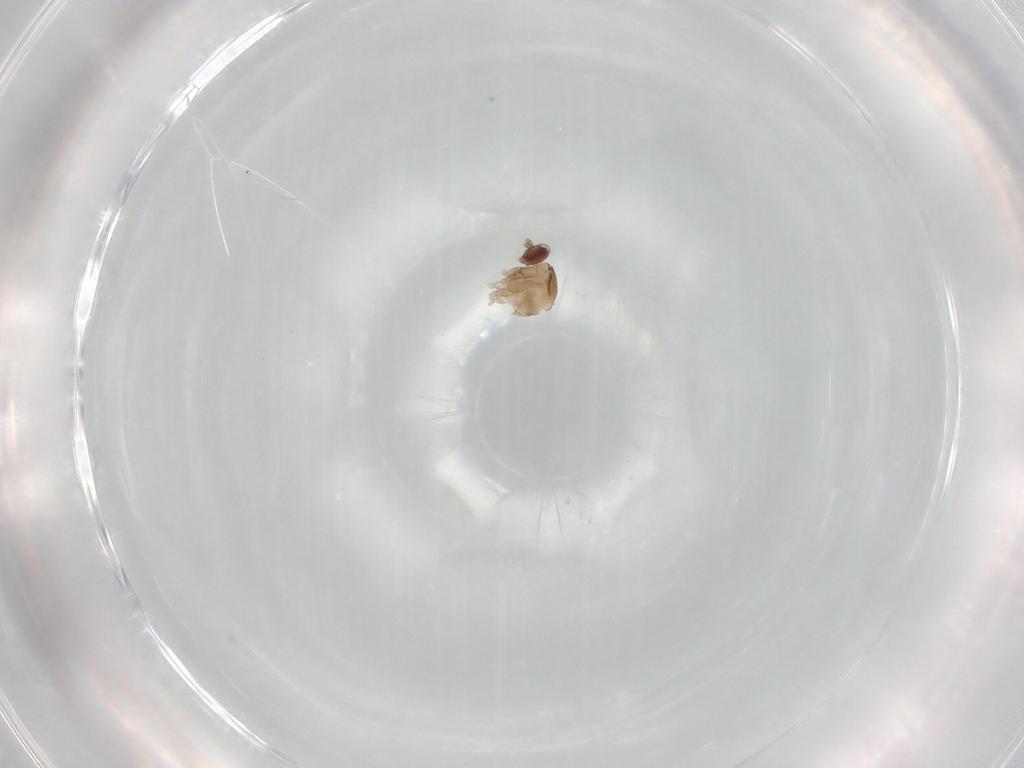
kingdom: Animalia
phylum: Arthropoda
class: Insecta
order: Diptera
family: Cecidomyiidae
